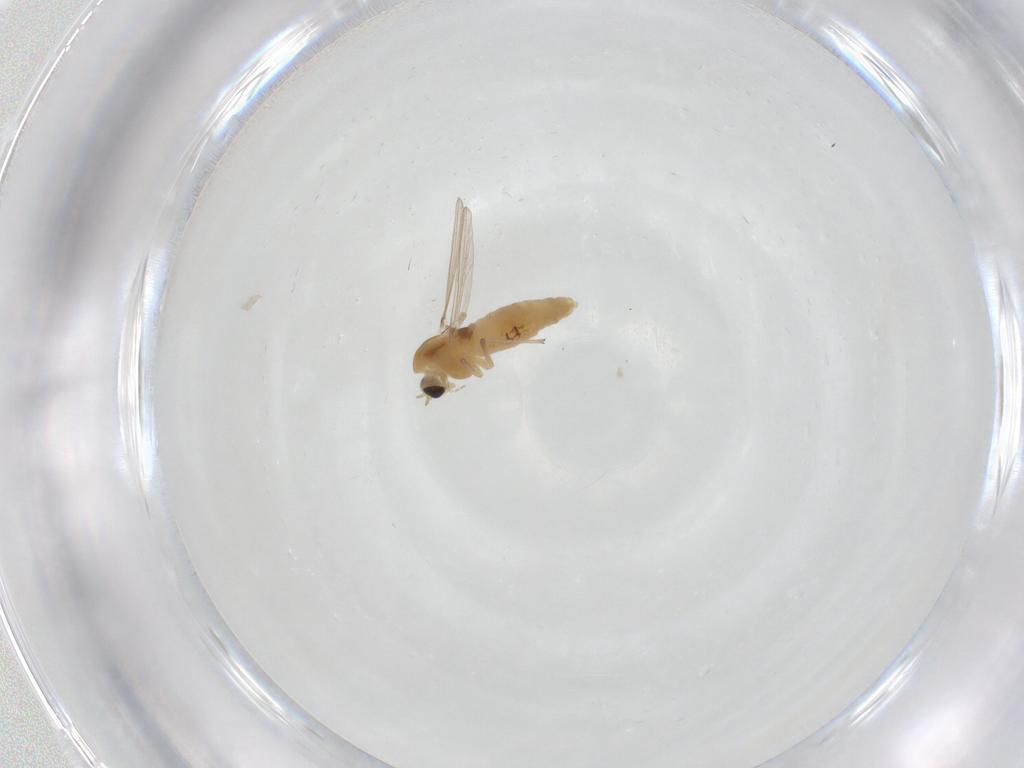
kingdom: Animalia
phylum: Arthropoda
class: Insecta
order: Diptera
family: Chironomidae
